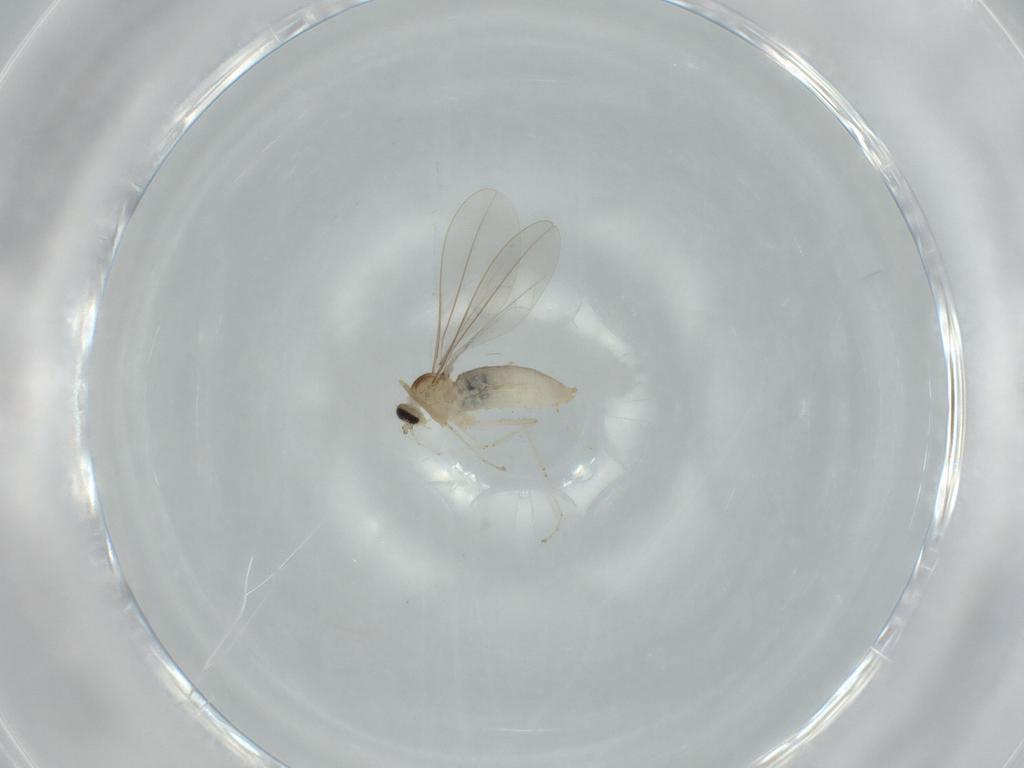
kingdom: Animalia
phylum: Arthropoda
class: Insecta
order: Diptera
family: Cecidomyiidae
